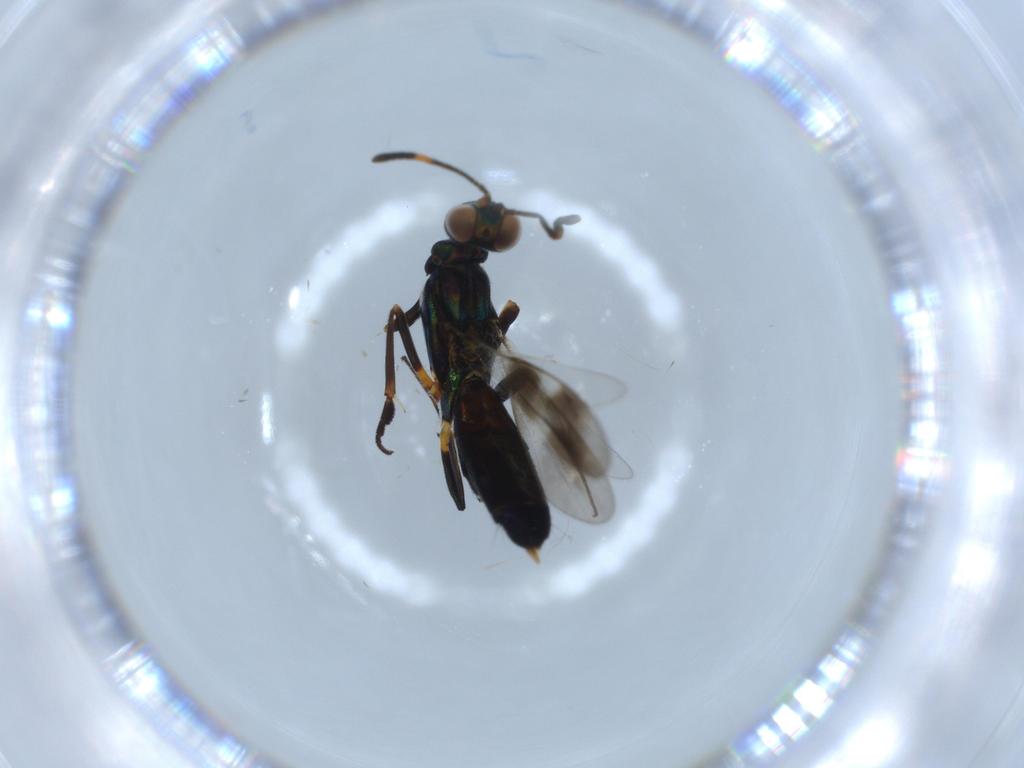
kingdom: Animalia
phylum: Arthropoda
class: Insecta
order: Hymenoptera
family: Eupelmidae
